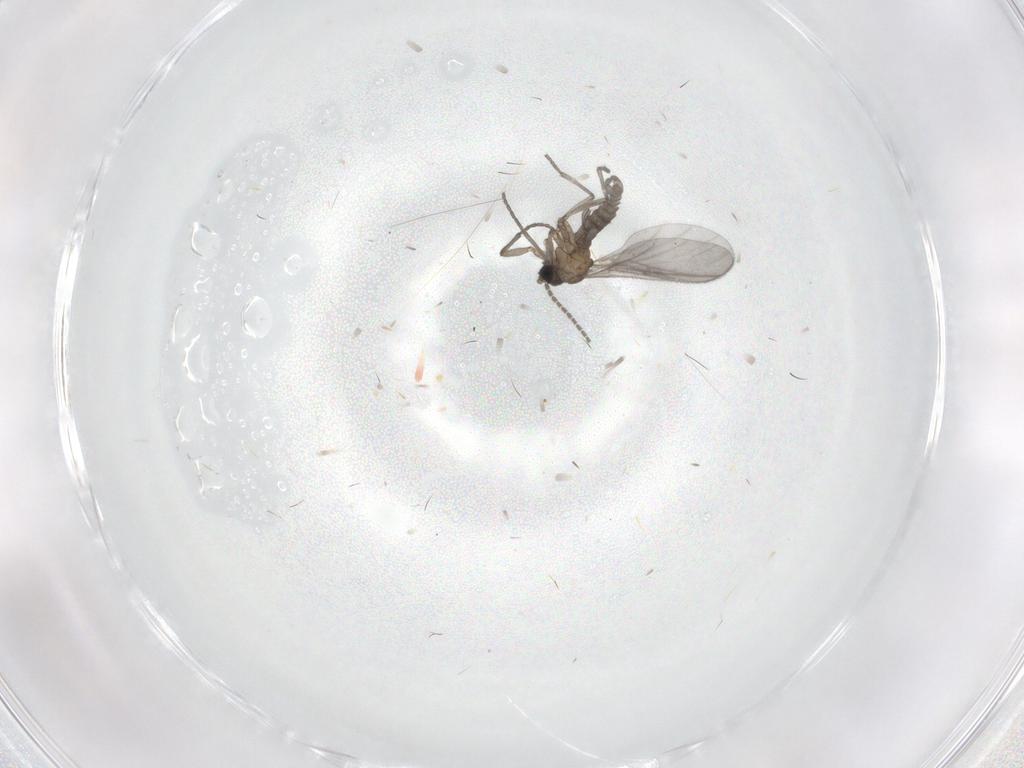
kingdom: Animalia
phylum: Arthropoda
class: Insecta
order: Diptera
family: Sciaridae
